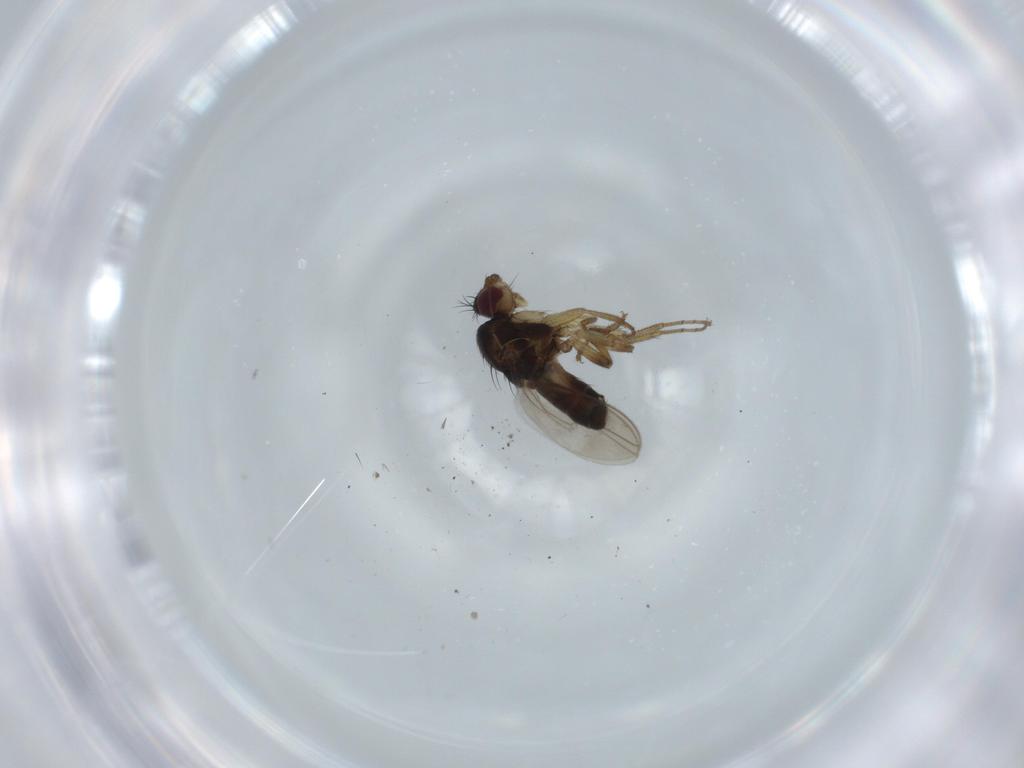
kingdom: Animalia
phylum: Arthropoda
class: Insecta
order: Diptera
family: Sphaeroceridae
